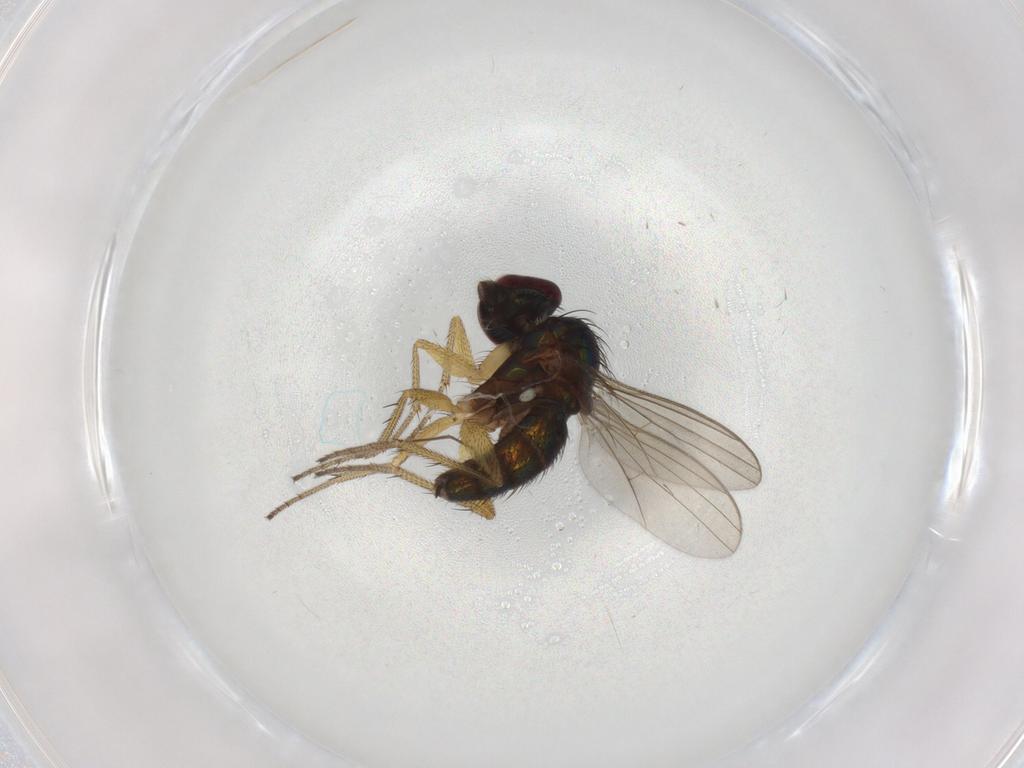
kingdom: Animalia
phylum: Arthropoda
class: Insecta
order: Diptera
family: Dolichopodidae
